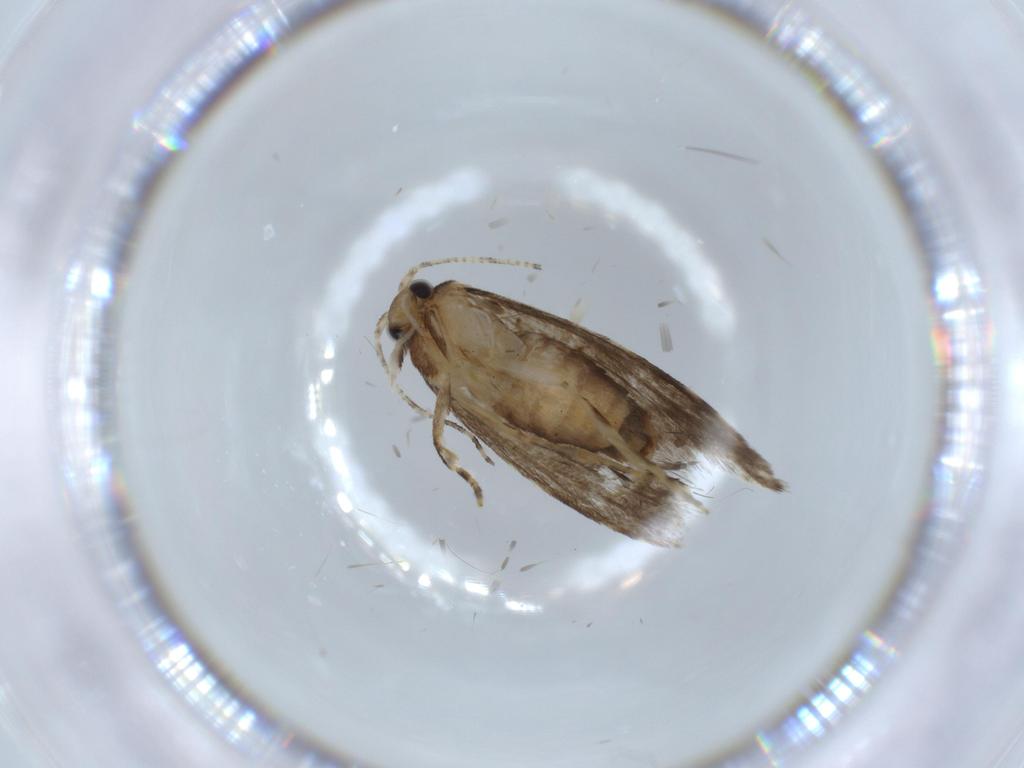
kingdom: Animalia
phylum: Arthropoda
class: Insecta
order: Lepidoptera
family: Tineidae
